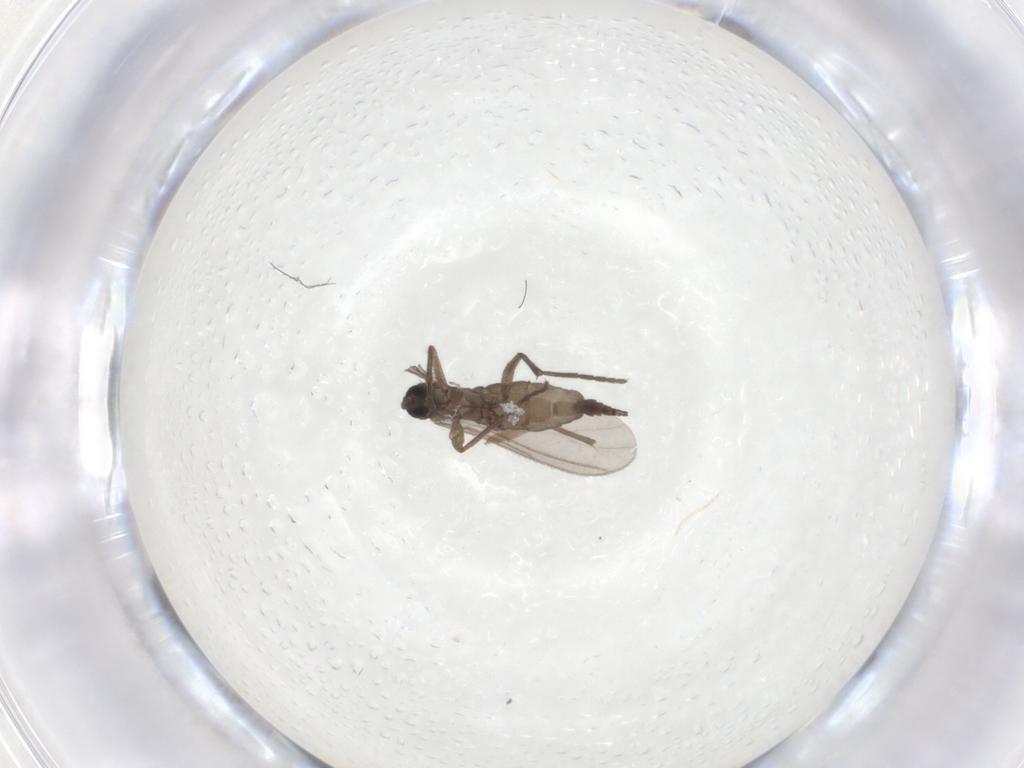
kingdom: Animalia
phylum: Arthropoda
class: Insecta
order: Diptera
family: Sciaridae
